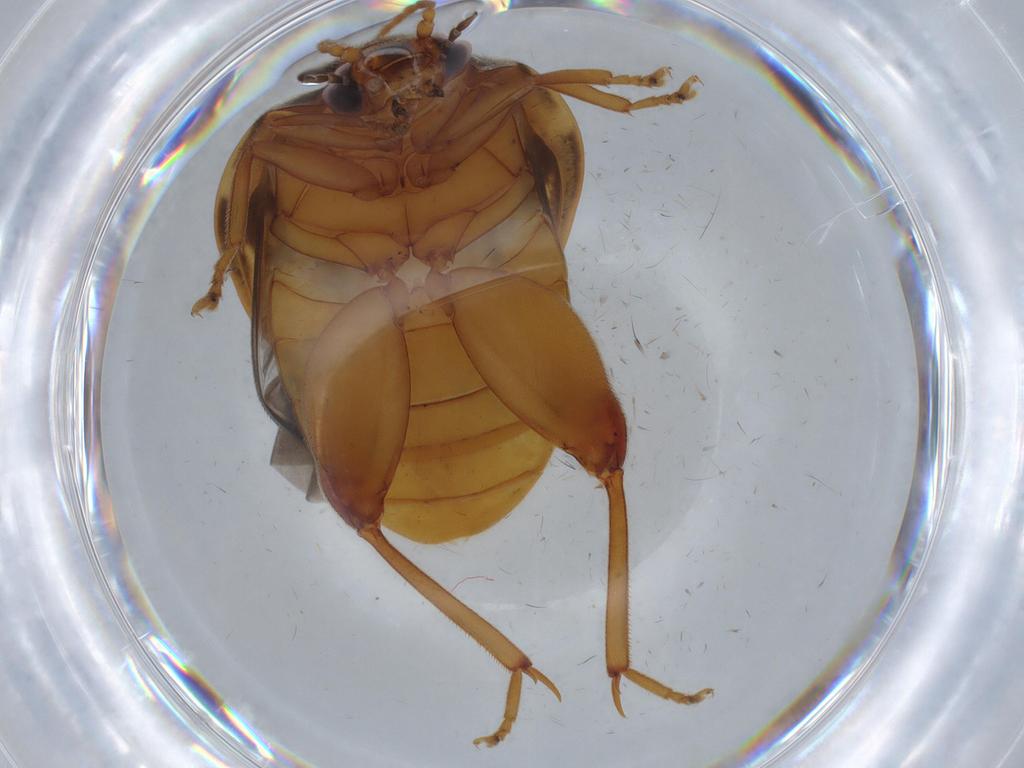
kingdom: Animalia
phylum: Arthropoda
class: Insecta
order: Coleoptera
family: Scirtidae
